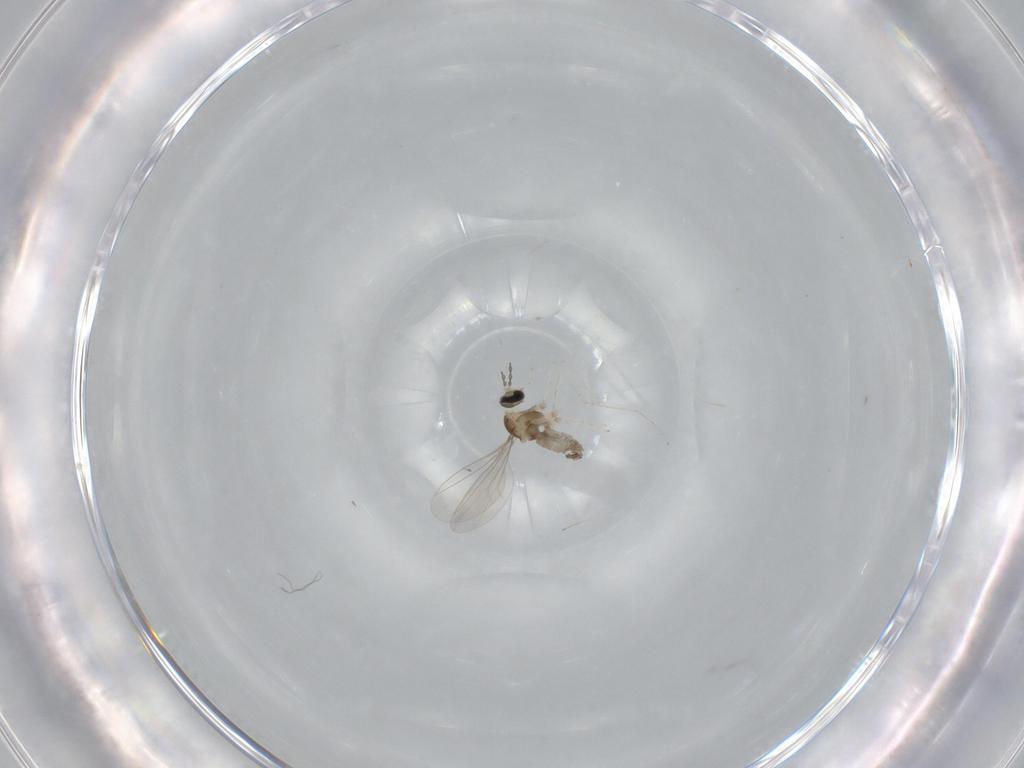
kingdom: Animalia
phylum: Arthropoda
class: Insecta
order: Diptera
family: Cecidomyiidae
